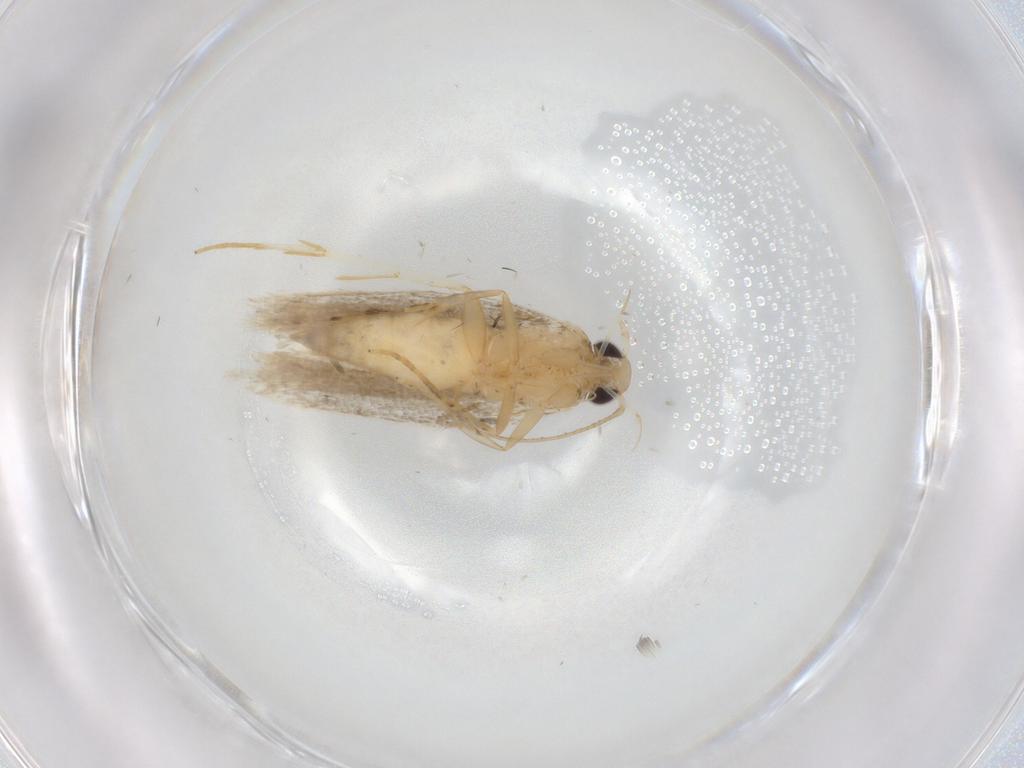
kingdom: Animalia
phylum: Arthropoda
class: Insecta
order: Lepidoptera
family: Autostichidae
